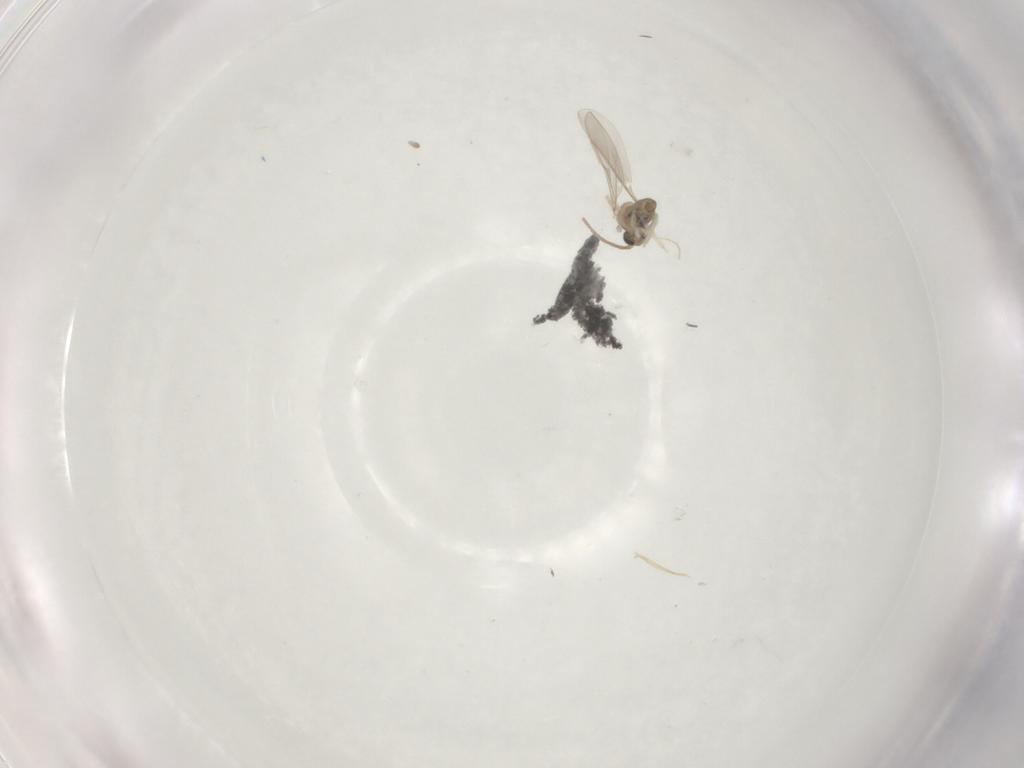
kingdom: Animalia
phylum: Arthropoda
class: Insecta
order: Diptera
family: Cecidomyiidae
